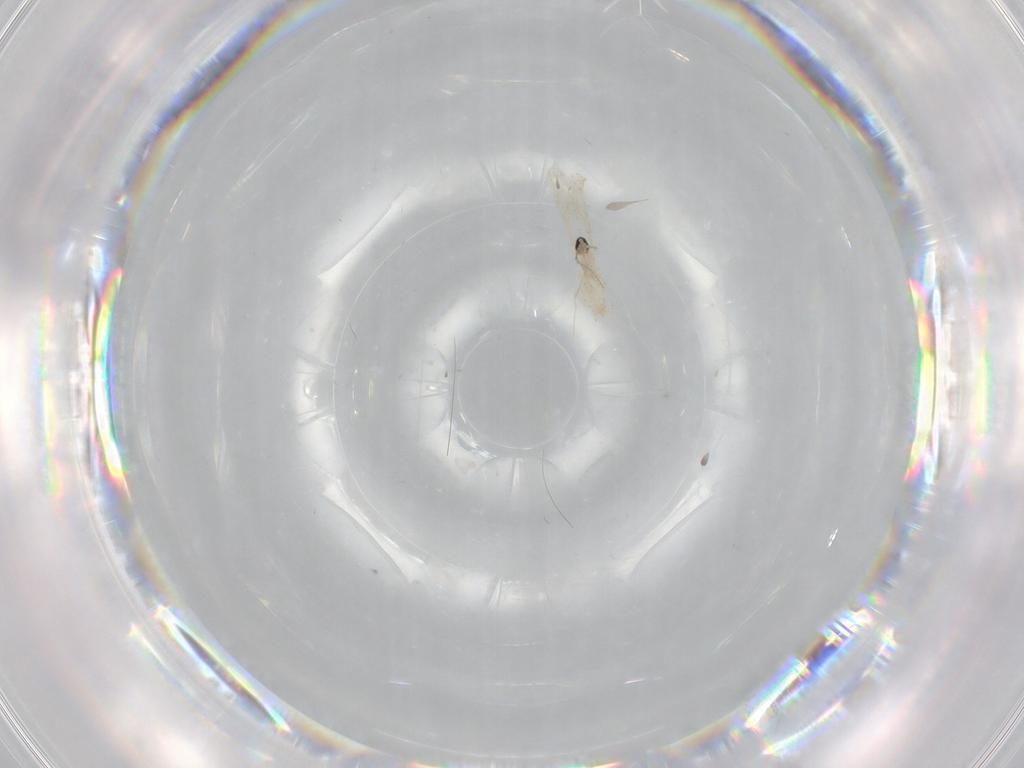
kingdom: Animalia
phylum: Arthropoda
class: Insecta
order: Diptera
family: Cecidomyiidae
